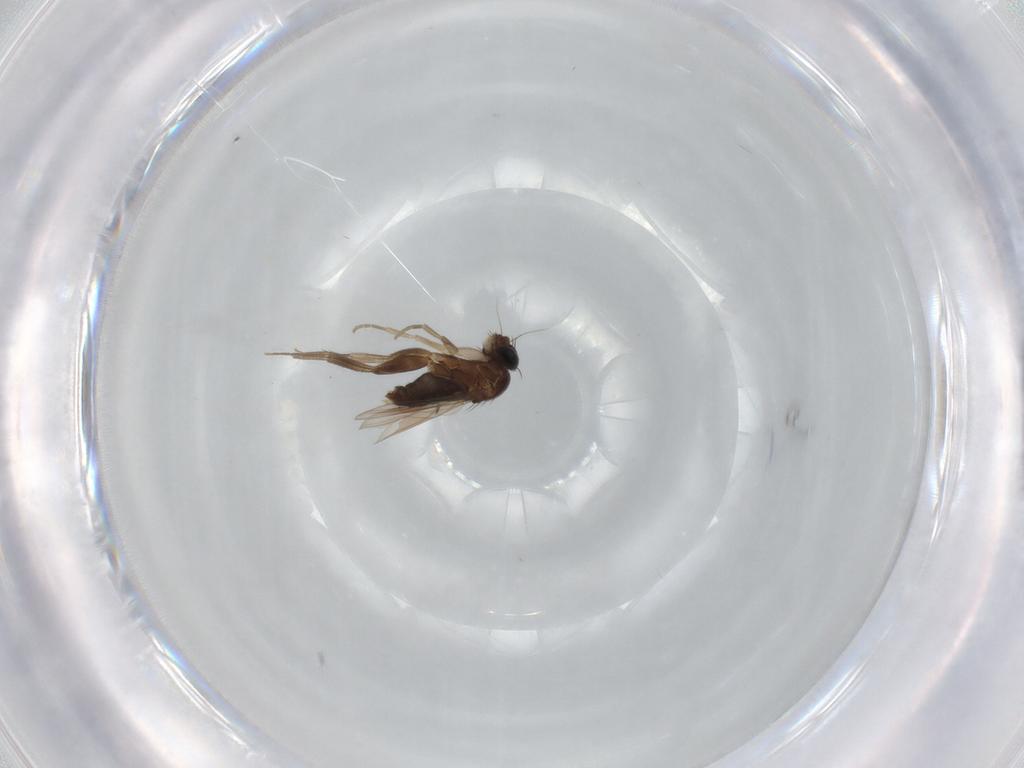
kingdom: Animalia
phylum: Arthropoda
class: Insecta
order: Diptera
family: Phoridae
